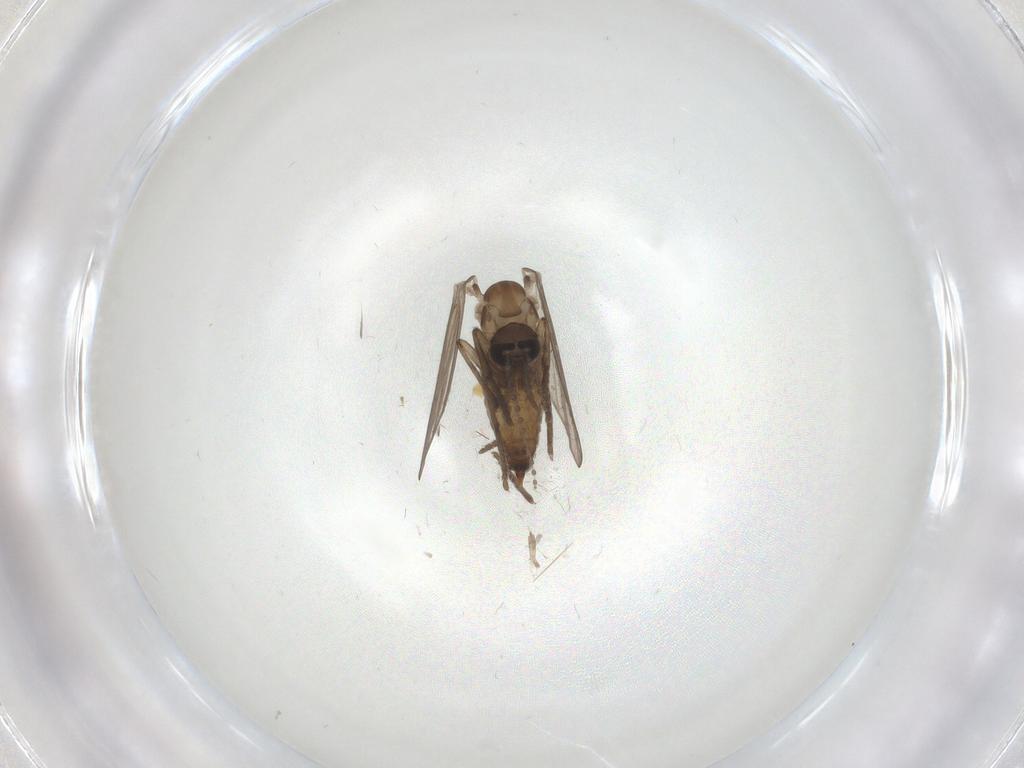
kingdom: Animalia
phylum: Arthropoda
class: Insecta
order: Diptera
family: Psychodidae
